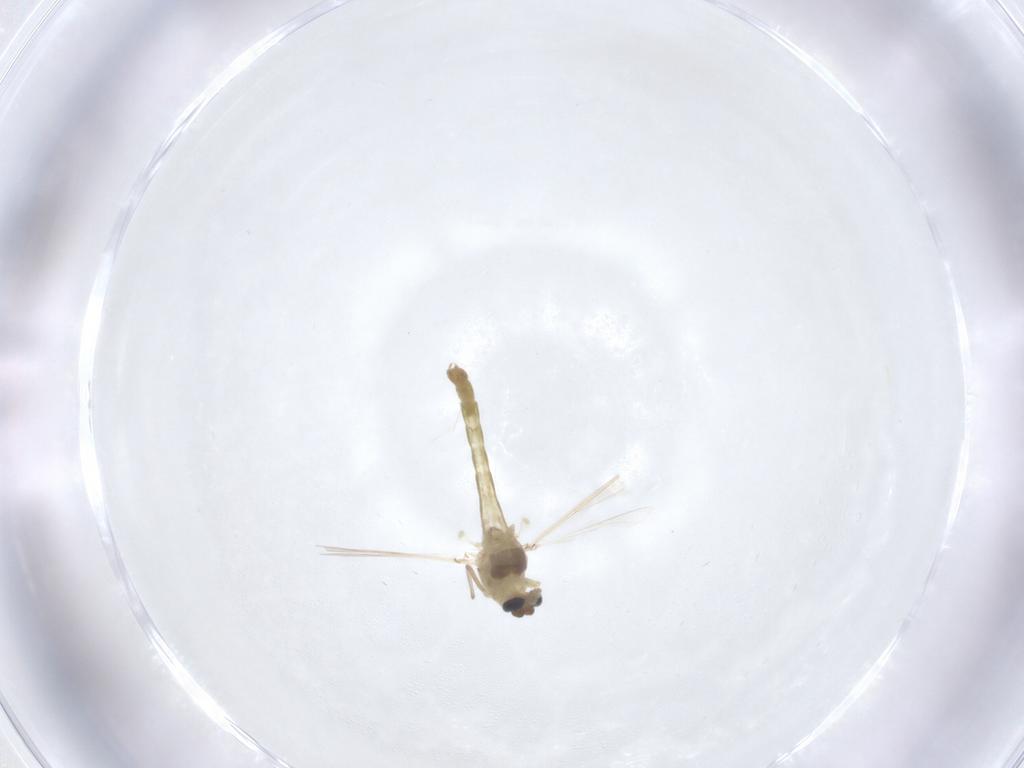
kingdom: Animalia
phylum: Arthropoda
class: Insecta
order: Diptera
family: Chironomidae
